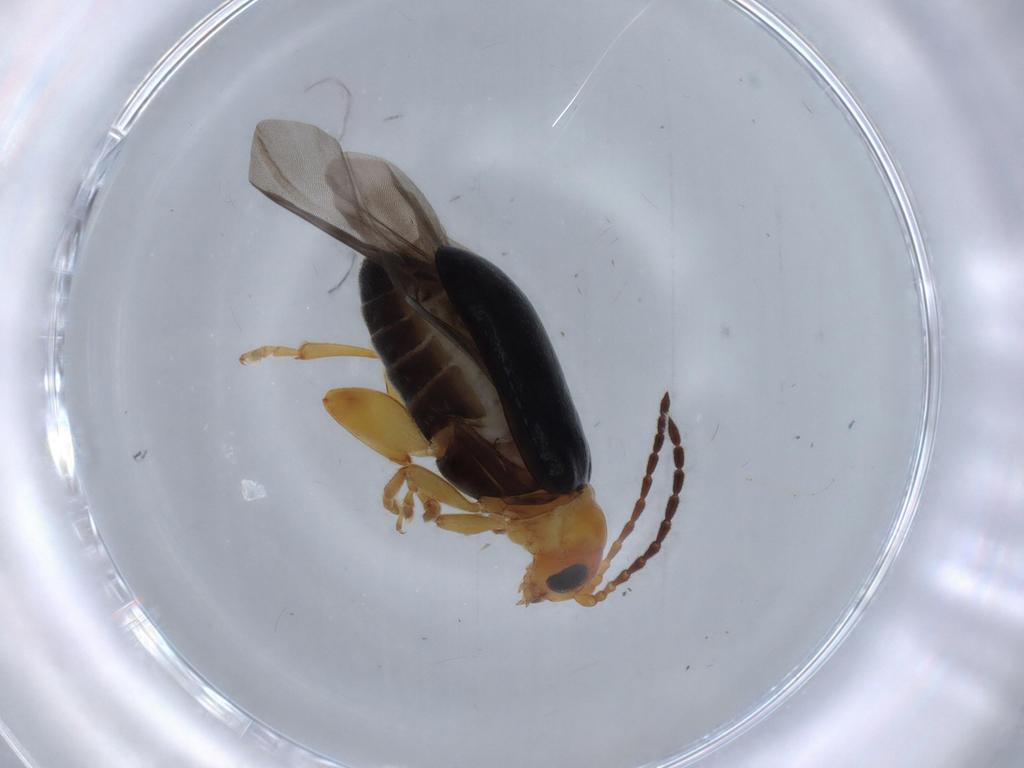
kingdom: Animalia
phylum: Arthropoda
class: Insecta
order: Coleoptera
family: Chrysomelidae
